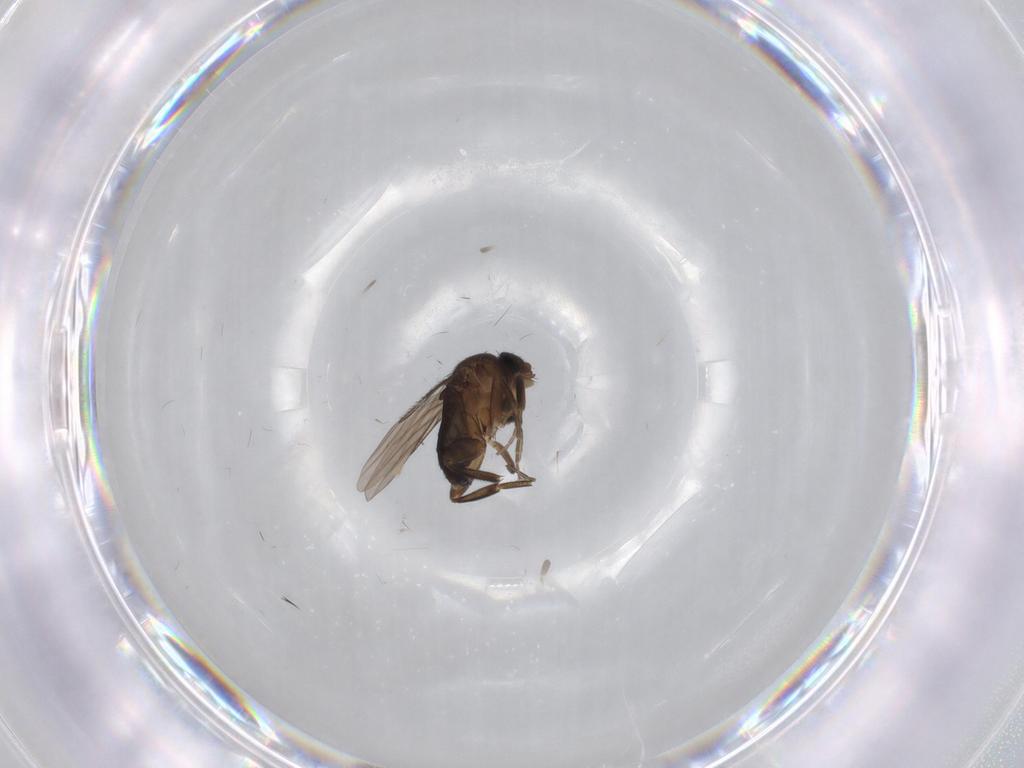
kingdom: Animalia
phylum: Arthropoda
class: Insecta
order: Diptera
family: Phoridae
